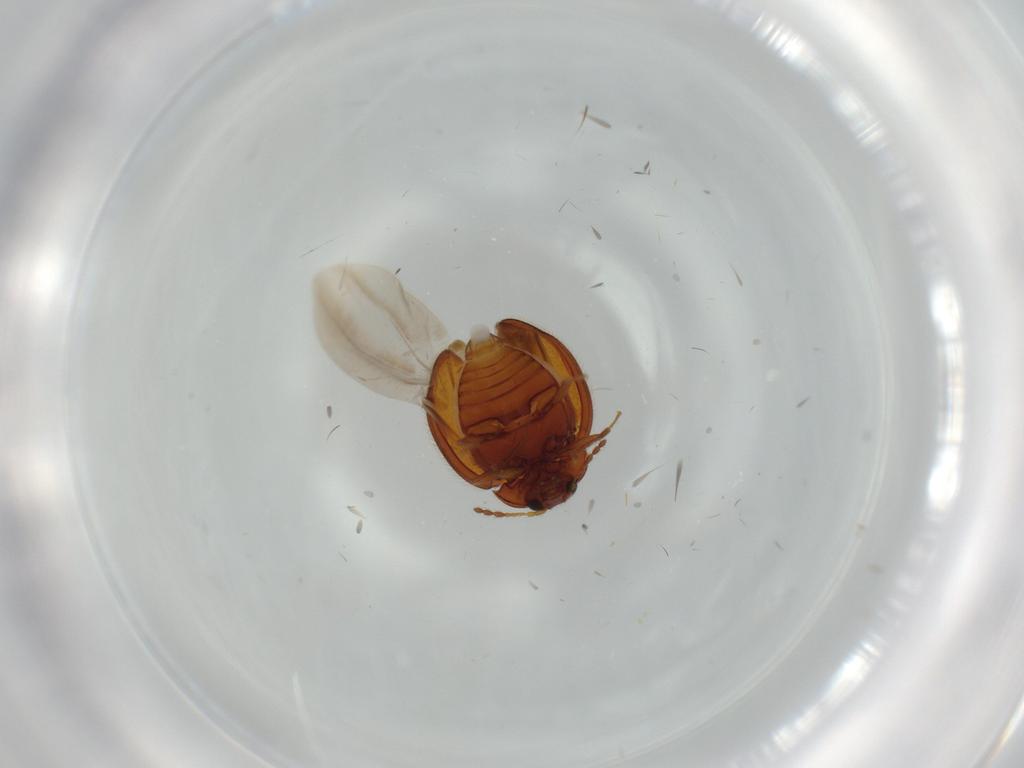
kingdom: Animalia
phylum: Arthropoda
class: Insecta
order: Coleoptera
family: Anamorphidae
